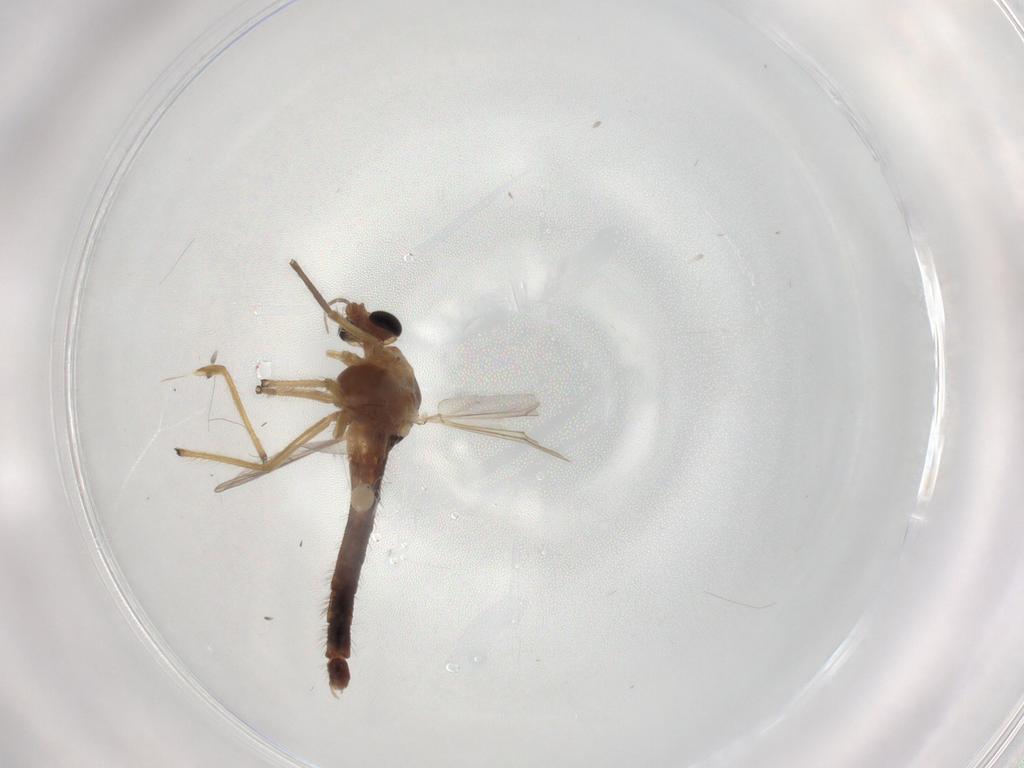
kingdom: Animalia
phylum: Arthropoda
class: Insecta
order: Diptera
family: Chironomidae
